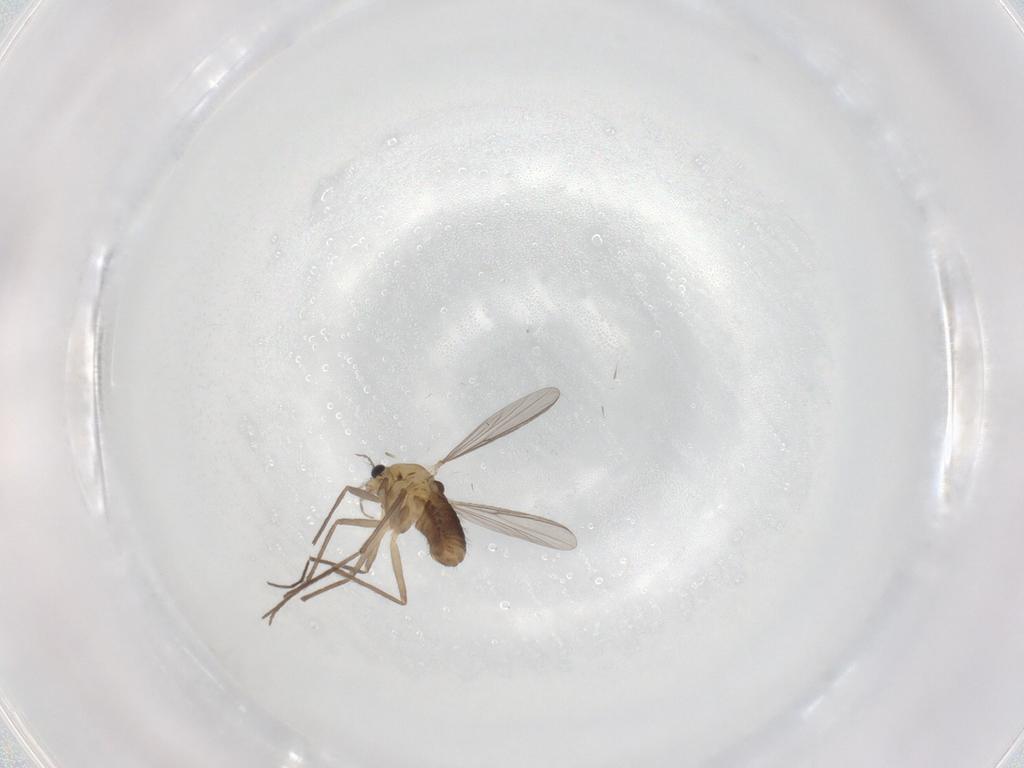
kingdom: Animalia
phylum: Arthropoda
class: Insecta
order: Diptera
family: Chironomidae
